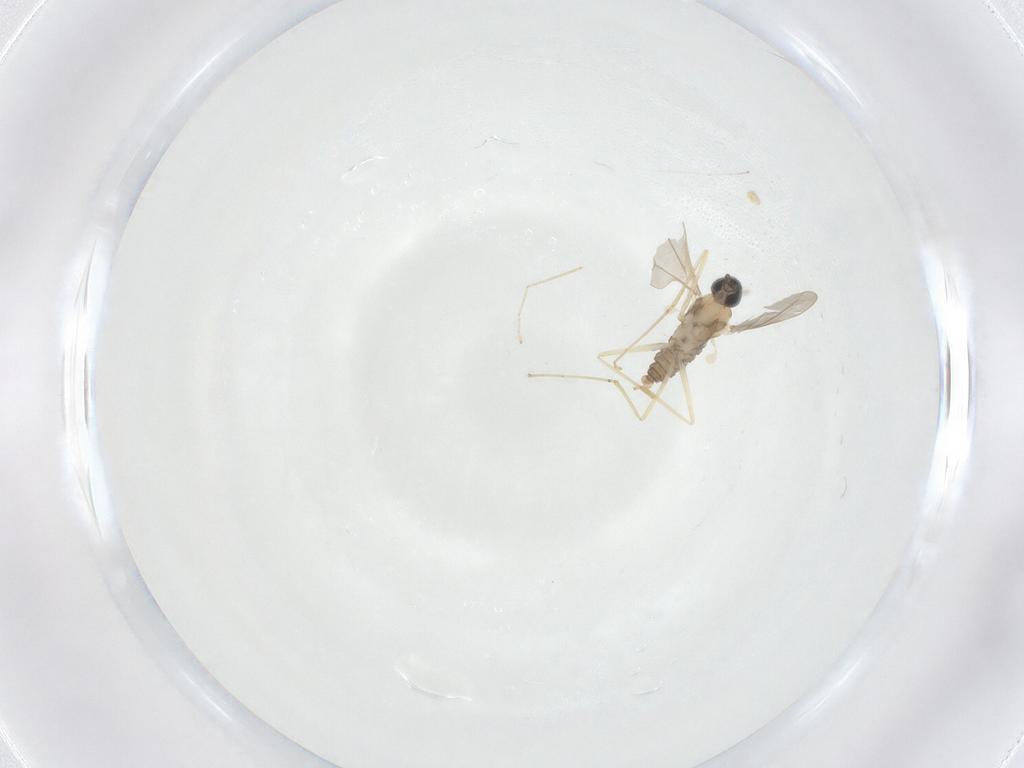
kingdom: Animalia
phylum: Arthropoda
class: Insecta
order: Diptera
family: Cecidomyiidae
